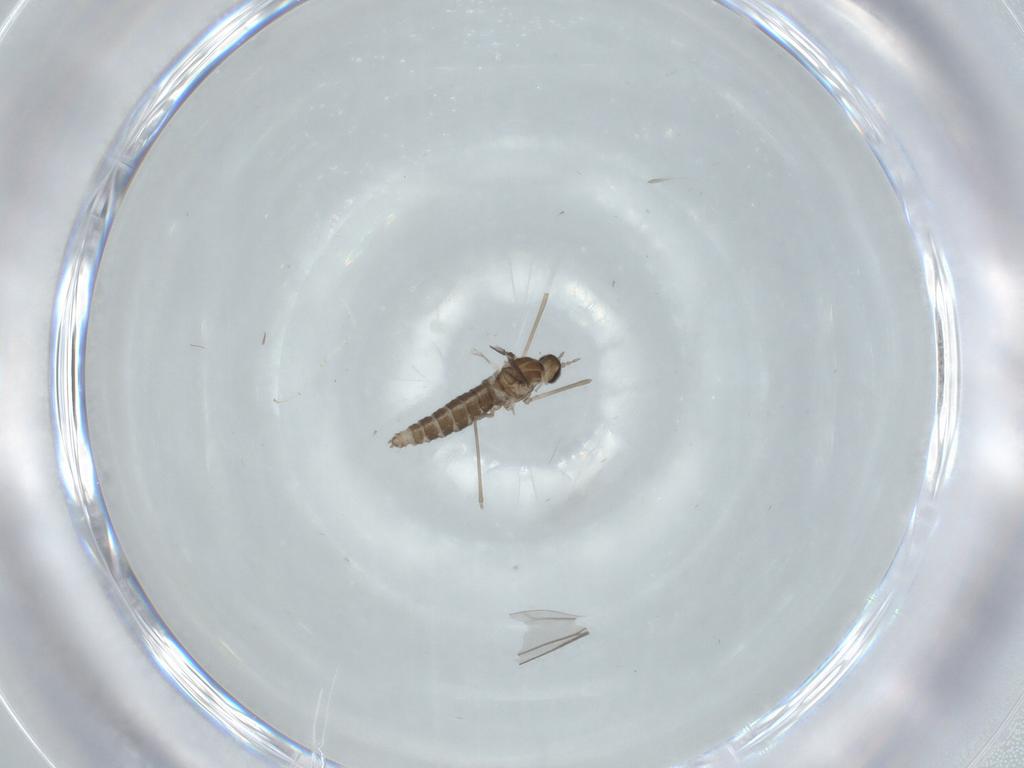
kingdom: Animalia
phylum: Arthropoda
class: Insecta
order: Diptera
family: Cecidomyiidae
